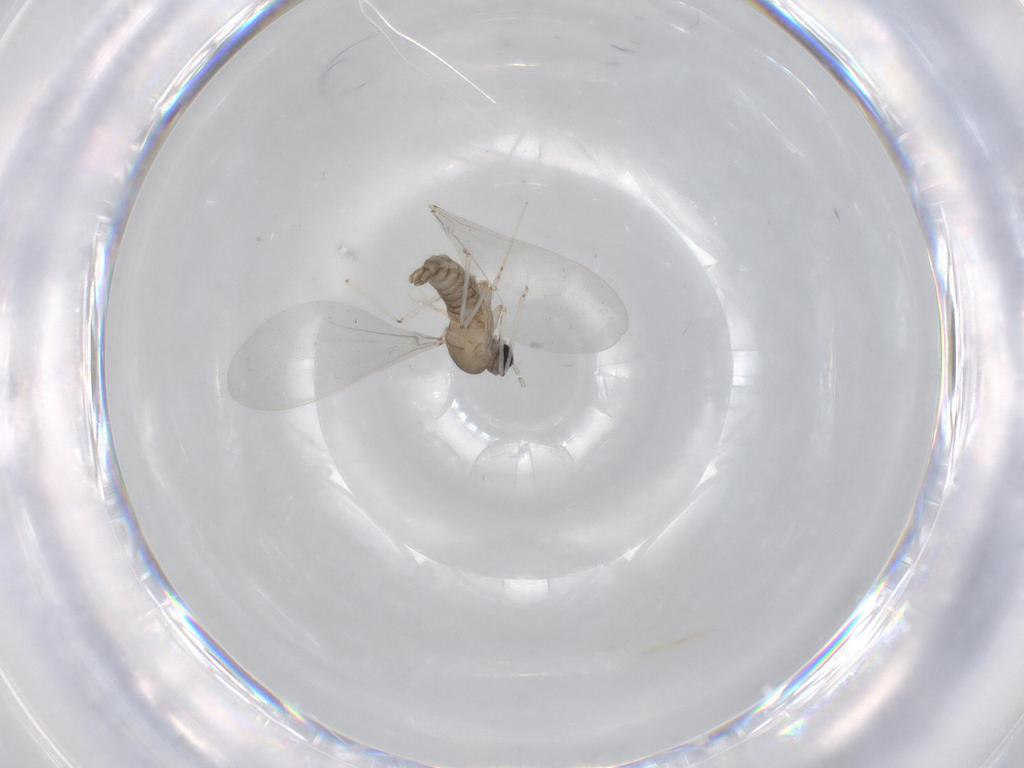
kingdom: Animalia
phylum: Arthropoda
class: Insecta
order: Diptera
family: Cecidomyiidae
